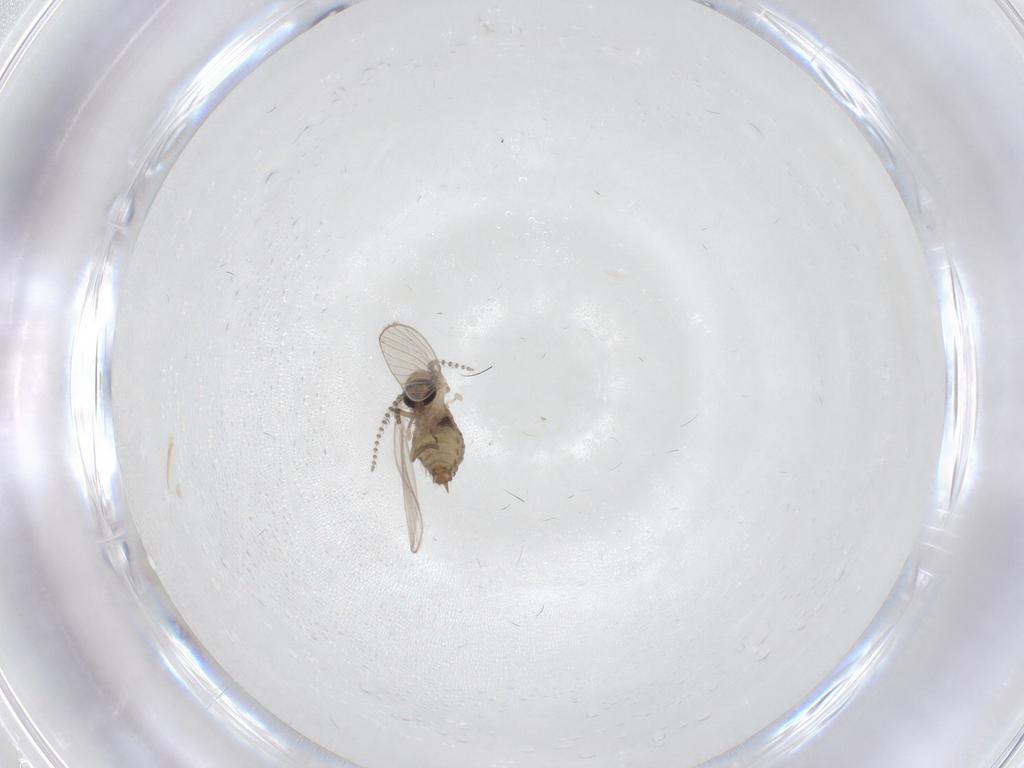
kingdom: Animalia
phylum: Arthropoda
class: Insecta
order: Diptera
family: Psychodidae
